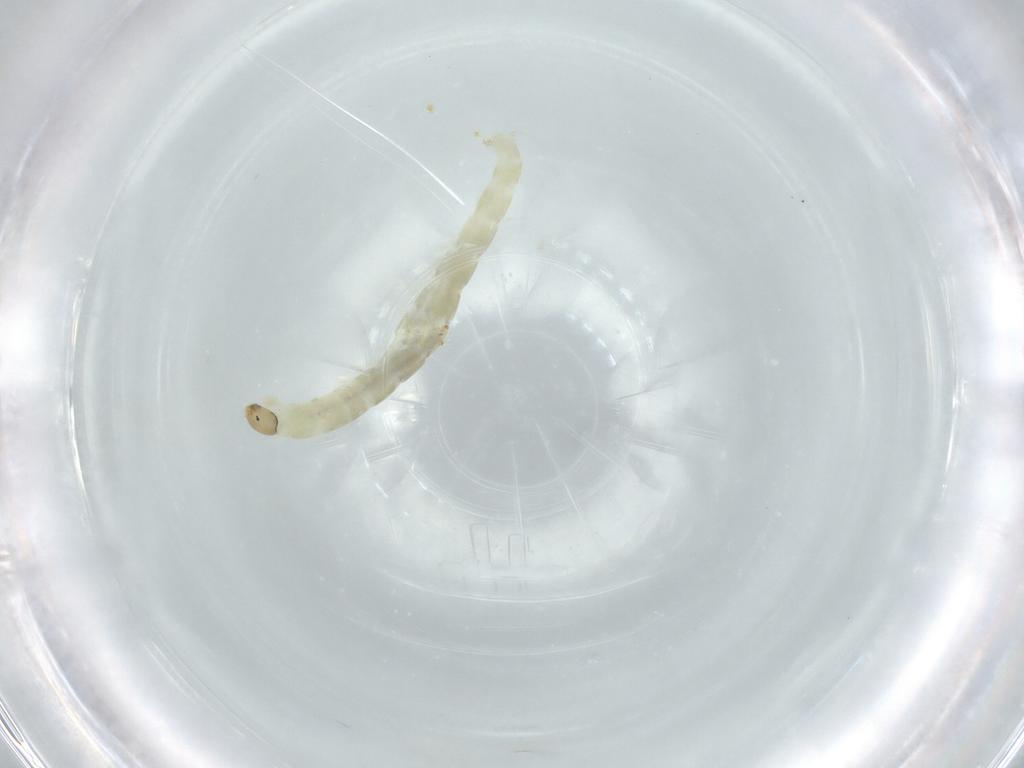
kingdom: Animalia
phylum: Arthropoda
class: Insecta
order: Diptera
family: Chironomidae
